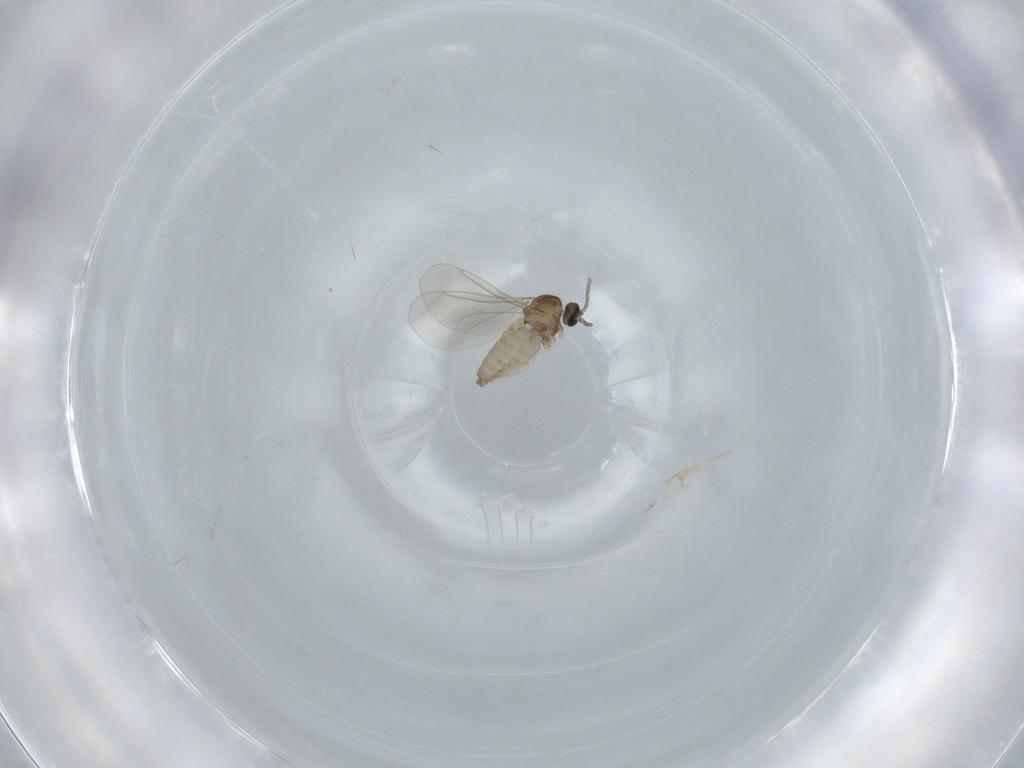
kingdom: Animalia
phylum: Arthropoda
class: Insecta
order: Diptera
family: Cecidomyiidae
